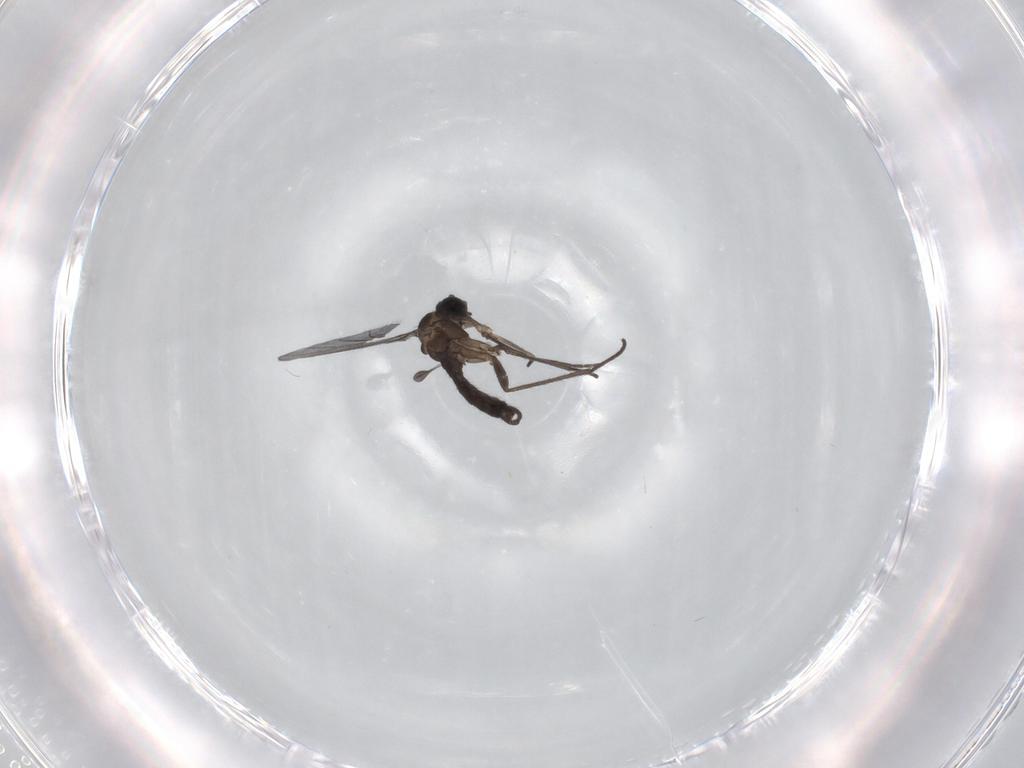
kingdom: Animalia
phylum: Arthropoda
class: Insecta
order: Diptera
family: Sciaridae
